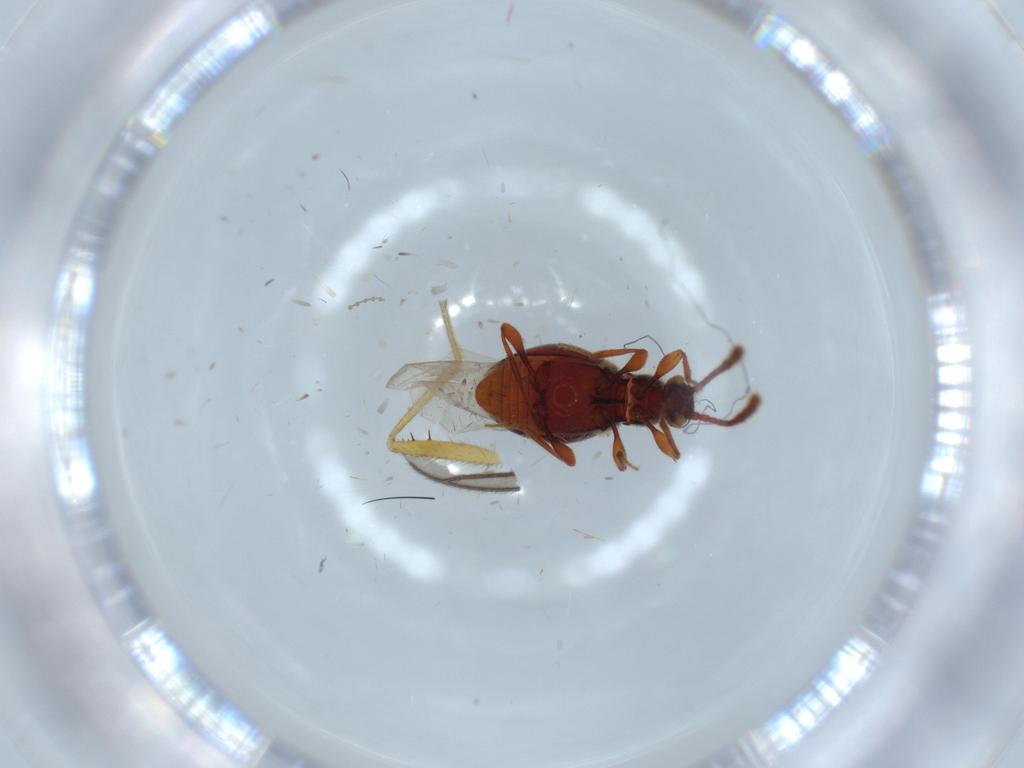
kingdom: Animalia
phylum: Arthropoda
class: Insecta
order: Coleoptera
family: Staphylinidae
